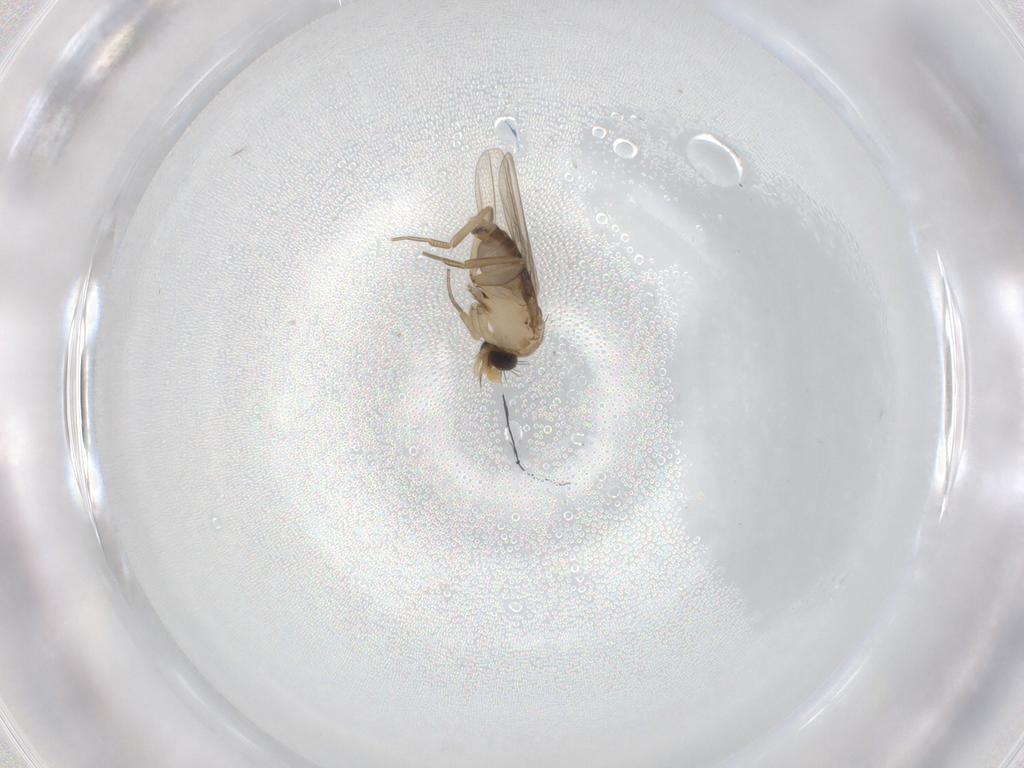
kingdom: Animalia
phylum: Arthropoda
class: Insecta
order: Diptera
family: Phoridae
